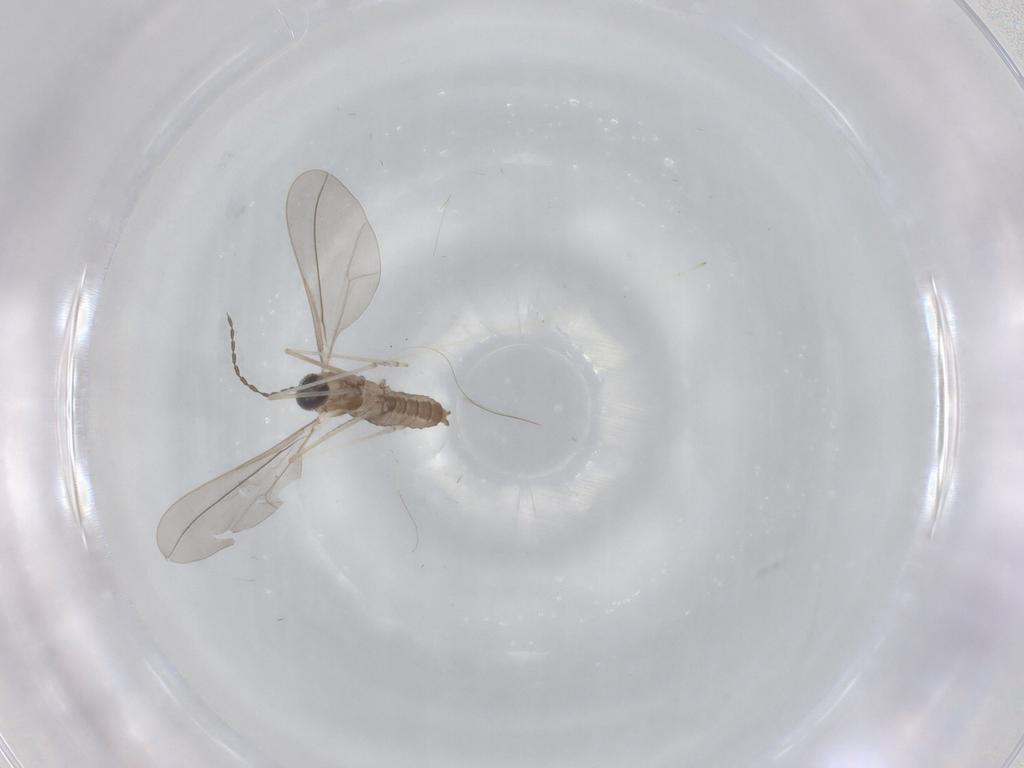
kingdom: Animalia
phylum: Arthropoda
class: Insecta
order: Diptera
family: Cecidomyiidae
